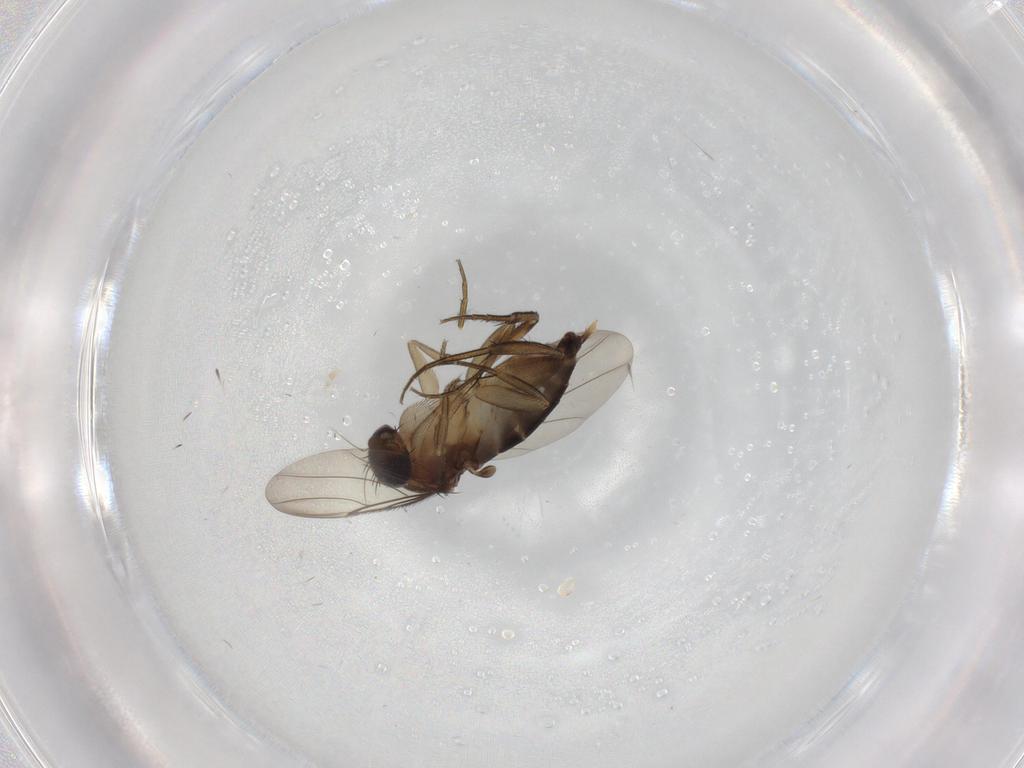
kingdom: Animalia
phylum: Arthropoda
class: Insecta
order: Diptera
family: Phoridae
